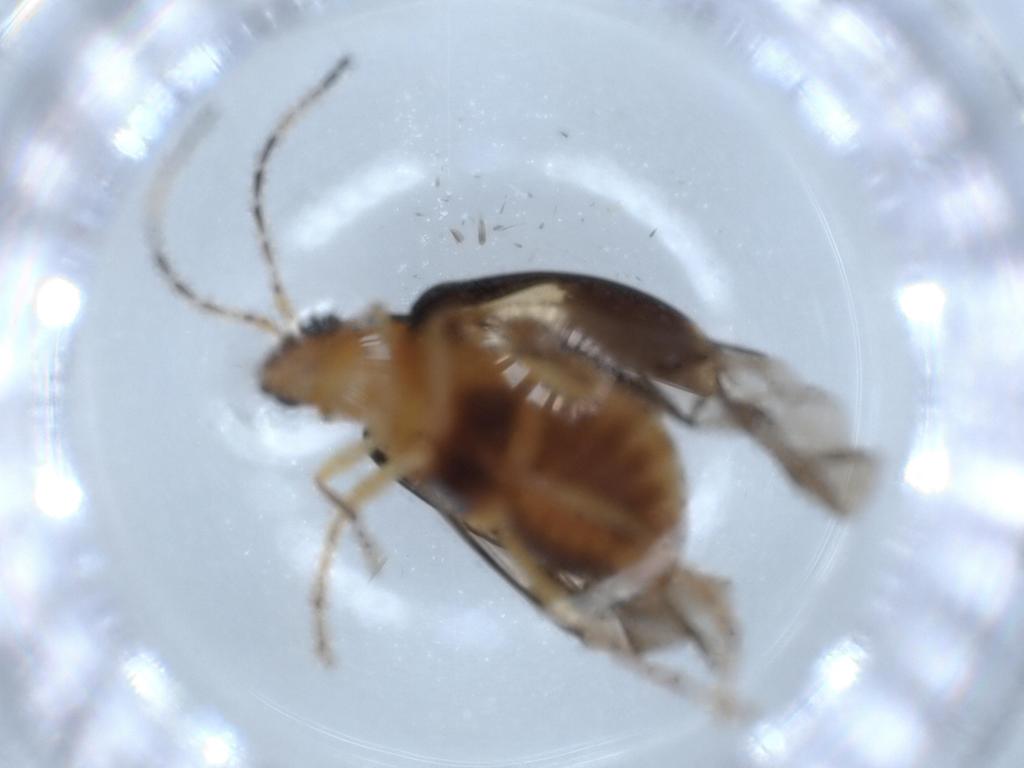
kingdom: Animalia
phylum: Arthropoda
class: Insecta
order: Coleoptera
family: Chrysomelidae
